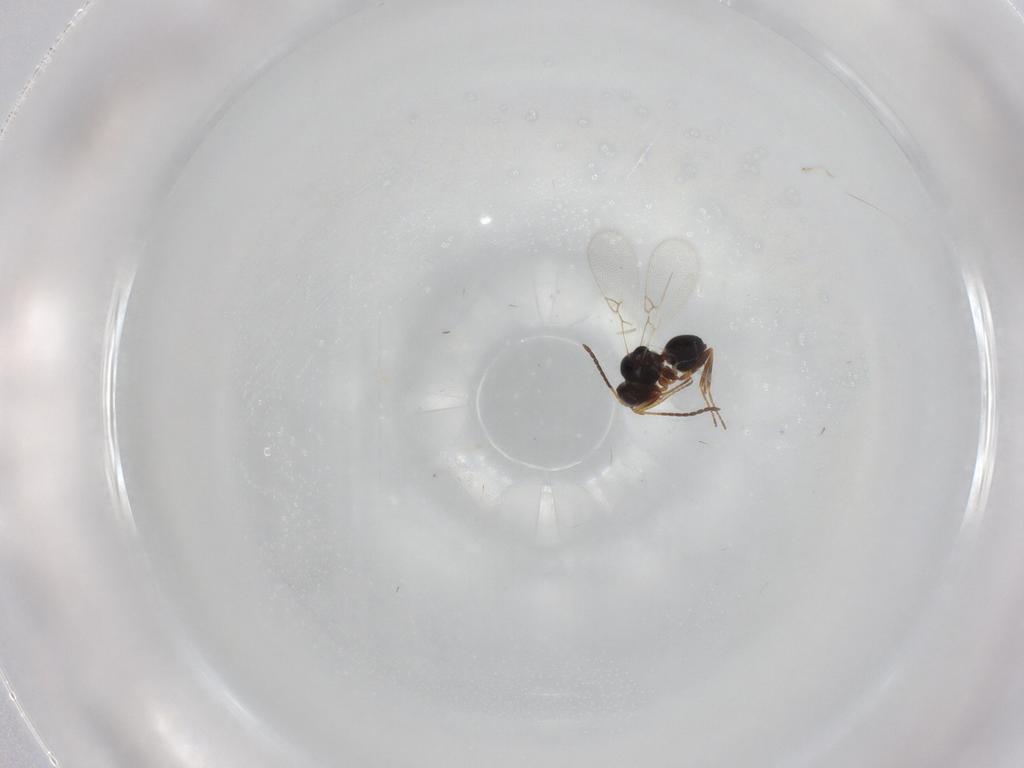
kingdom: Animalia
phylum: Arthropoda
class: Insecta
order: Hymenoptera
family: Figitidae
